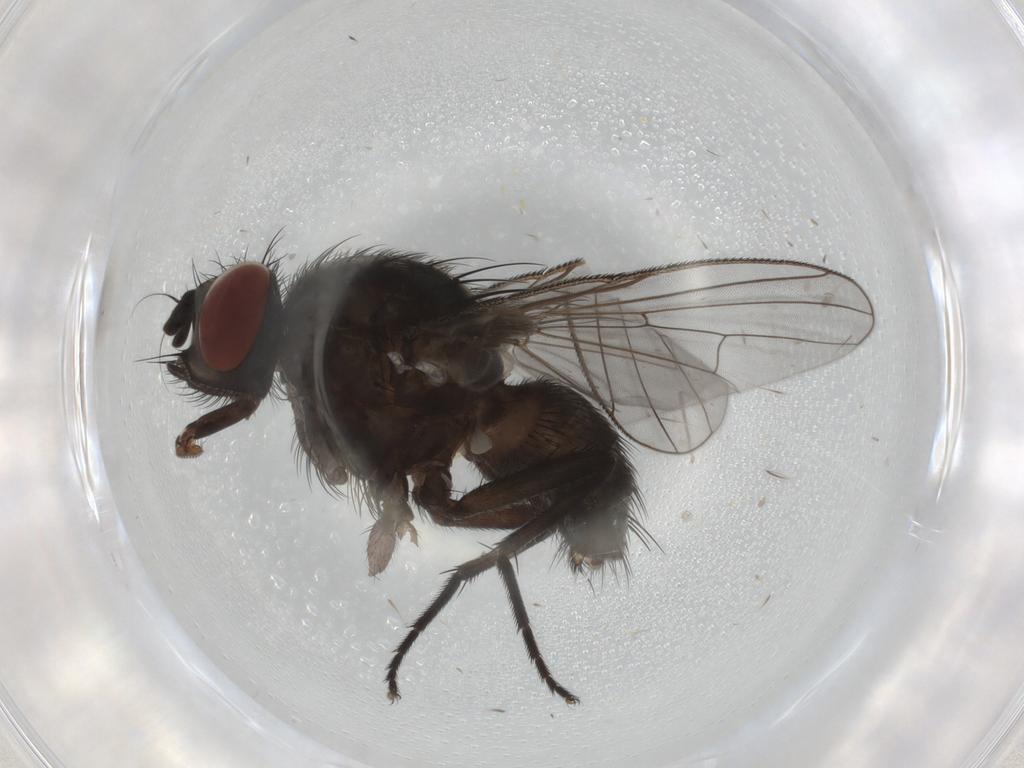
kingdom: Animalia
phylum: Arthropoda
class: Insecta
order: Diptera
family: Muscidae
